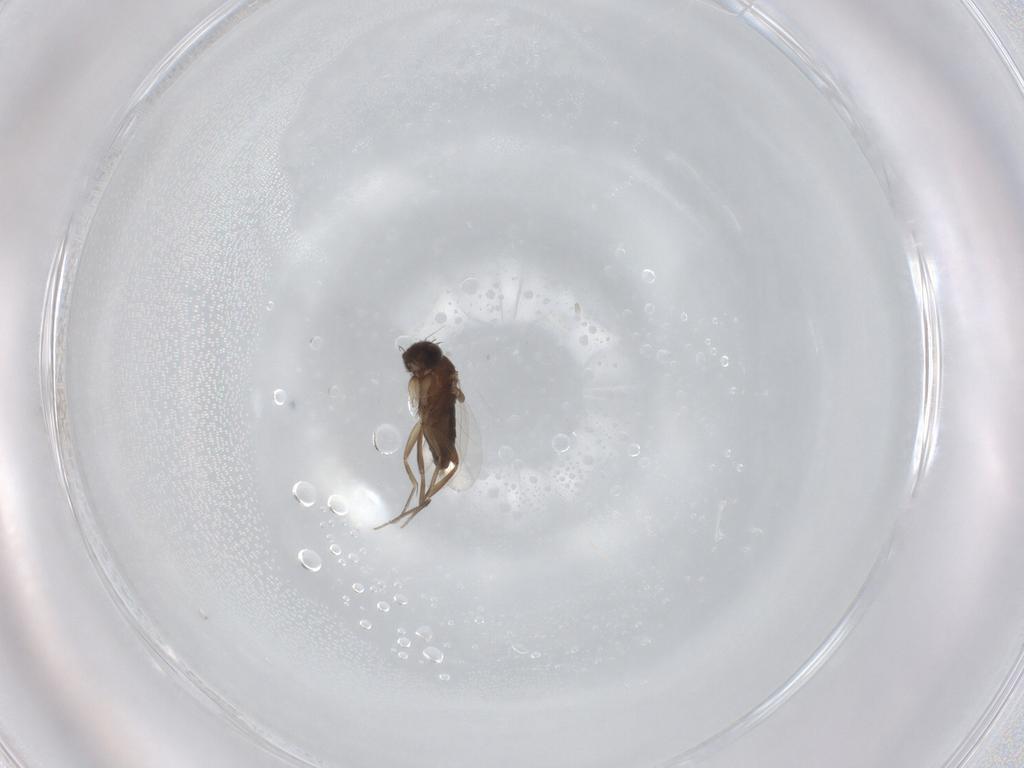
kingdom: Animalia
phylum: Arthropoda
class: Insecta
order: Diptera
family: Phoridae
